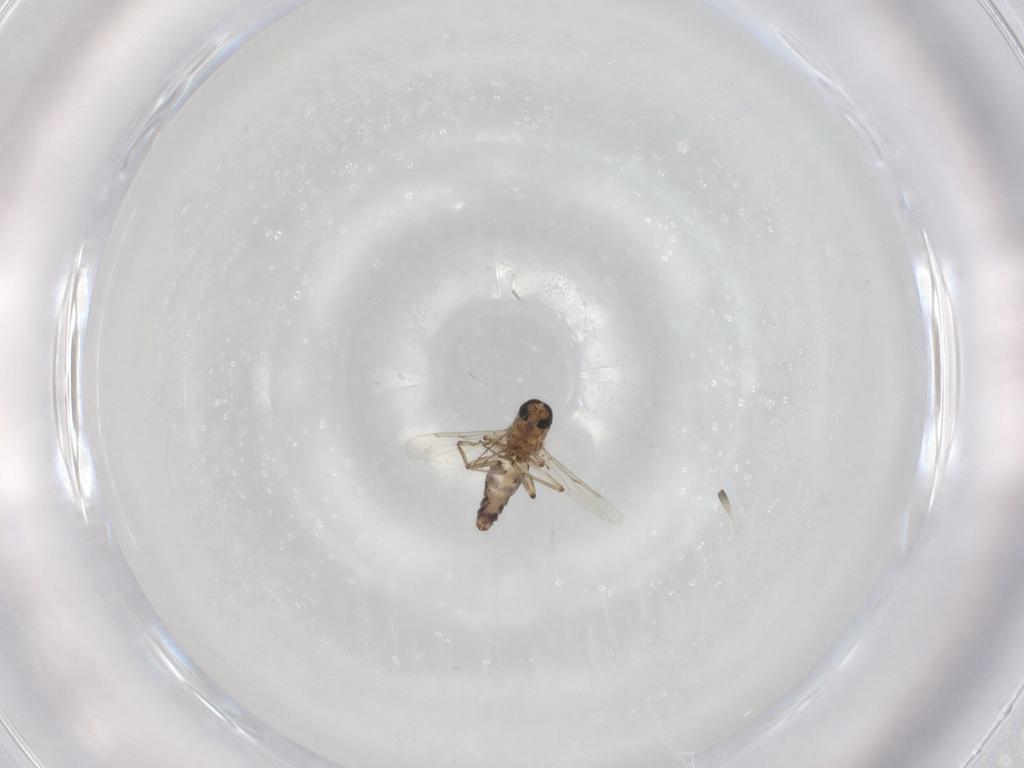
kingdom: Animalia
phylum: Arthropoda
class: Insecta
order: Diptera
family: Ceratopogonidae
